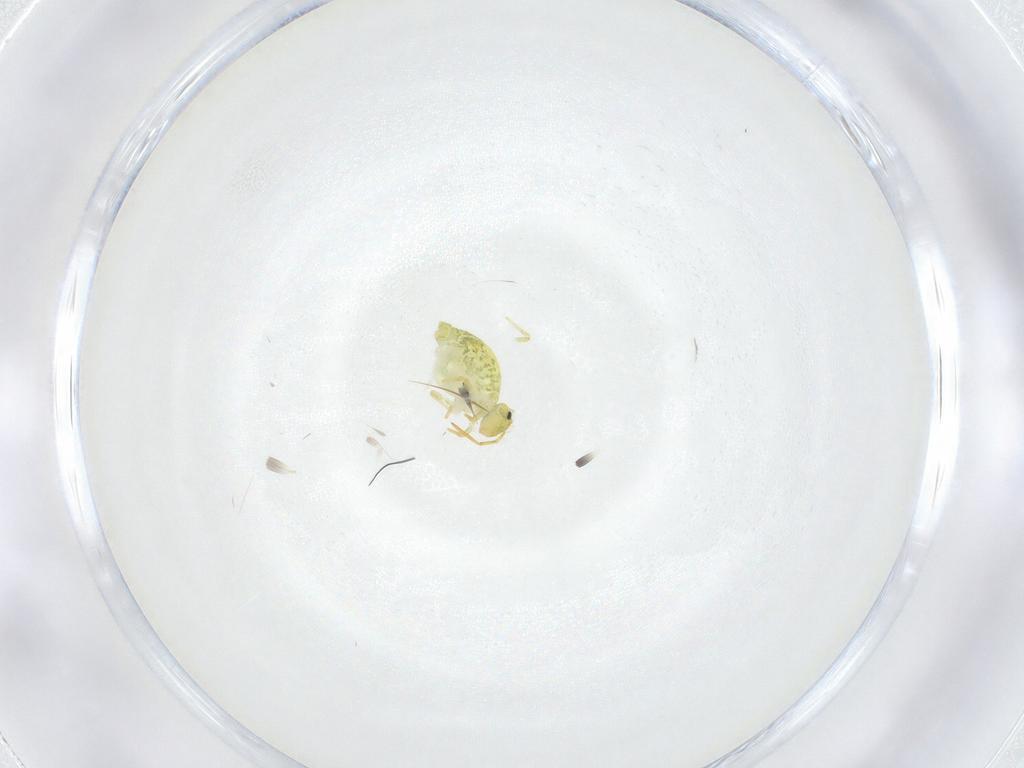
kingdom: Animalia
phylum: Arthropoda
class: Collembola
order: Symphypleona
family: Katiannidae
